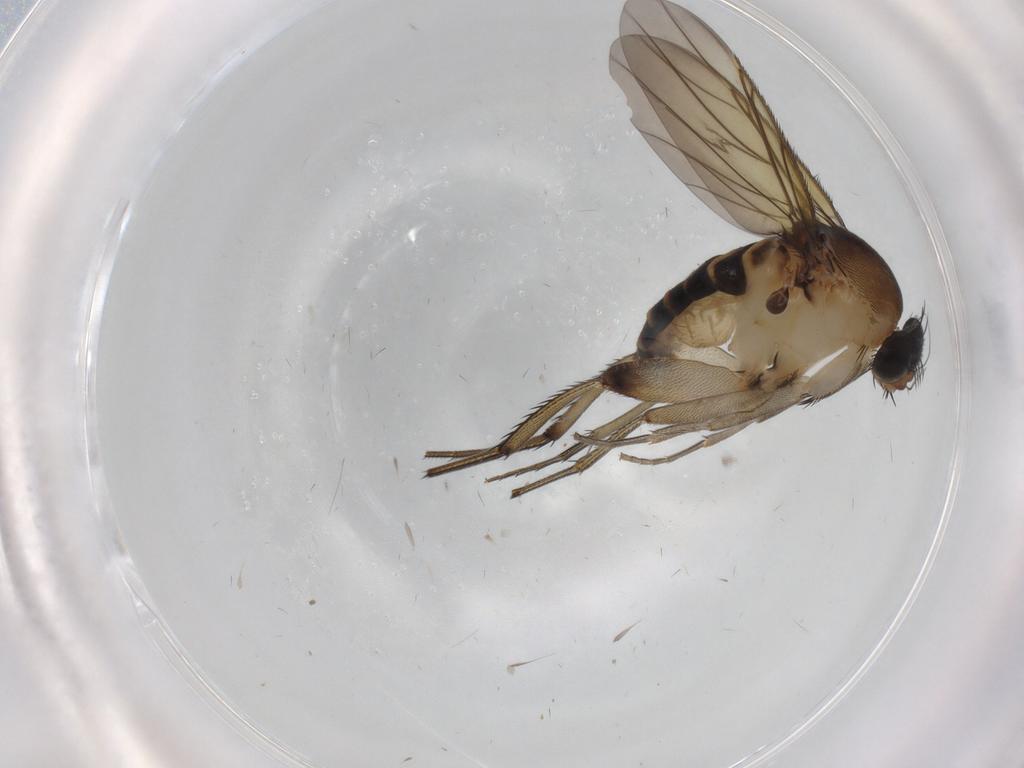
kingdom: Animalia
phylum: Arthropoda
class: Insecta
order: Diptera
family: Phoridae
